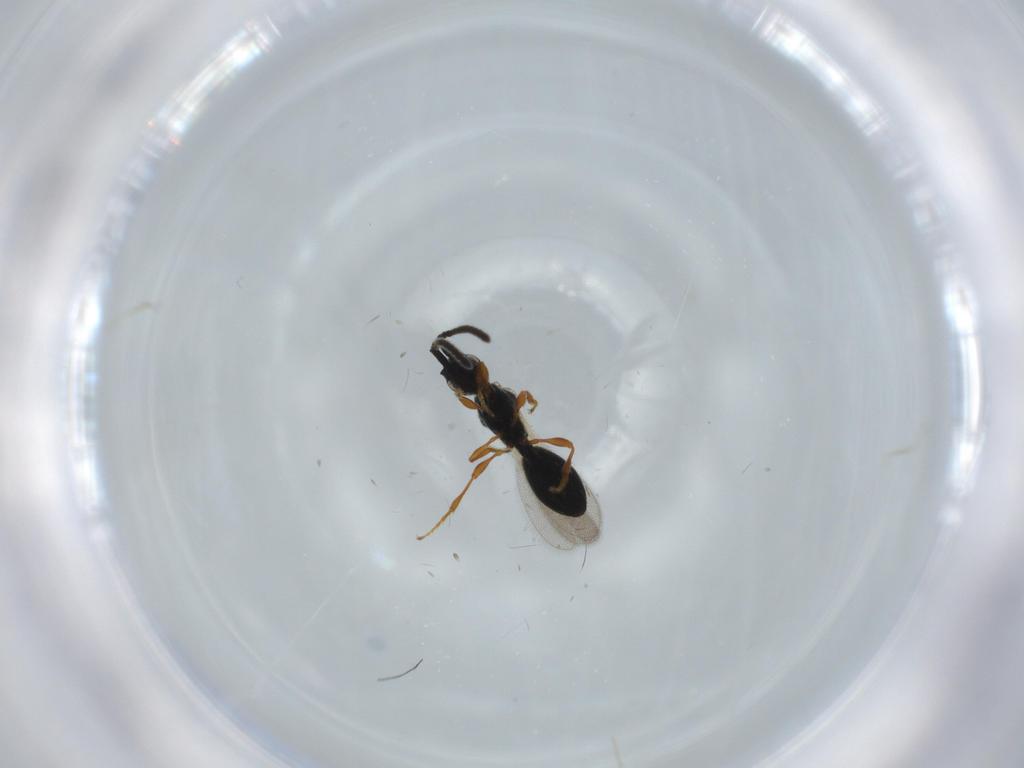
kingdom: Animalia
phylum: Arthropoda
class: Insecta
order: Hymenoptera
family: Diapriidae
